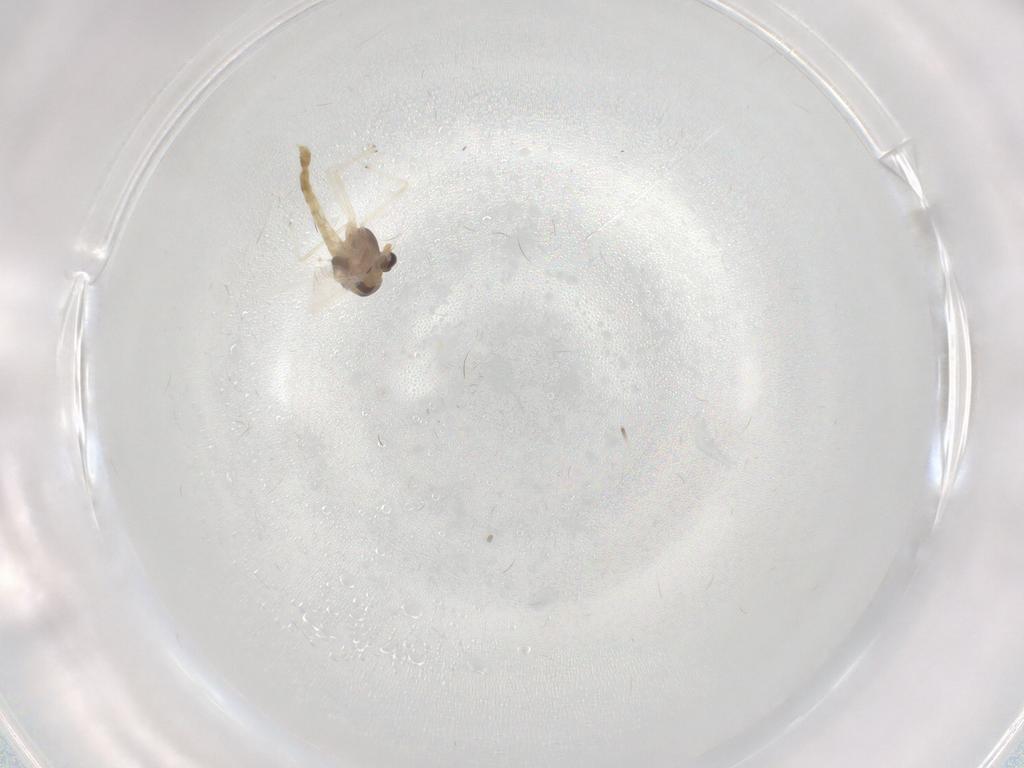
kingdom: Animalia
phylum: Arthropoda
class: Insecta
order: Diptera
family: Chironomidae
